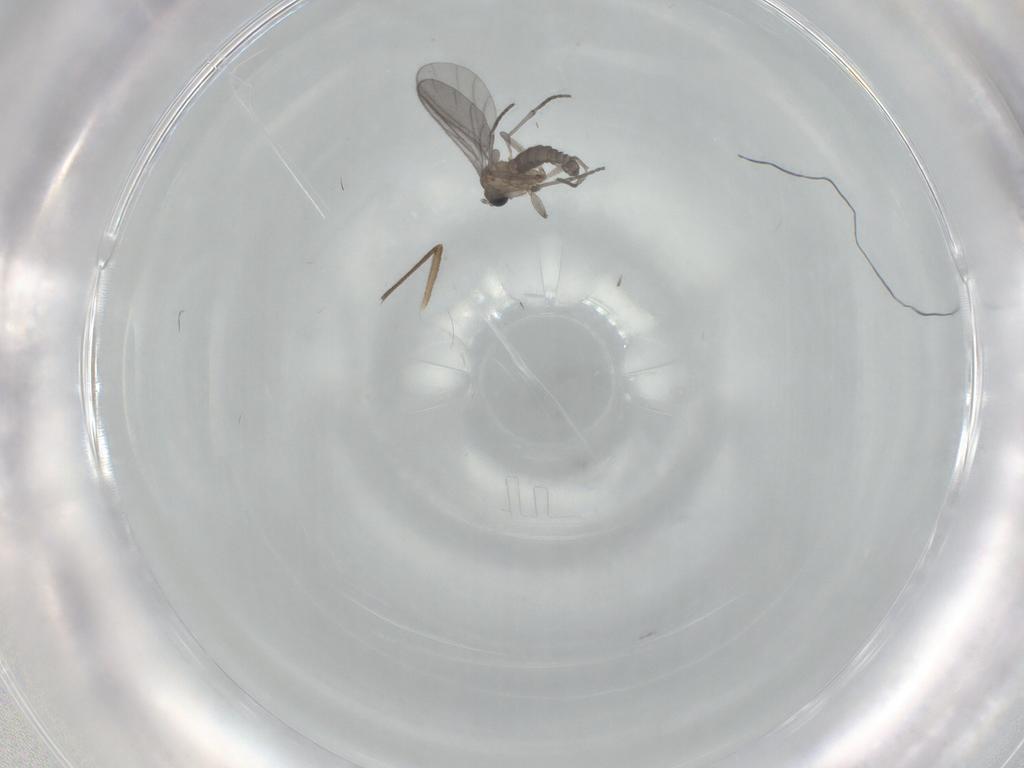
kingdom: Animalia
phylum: Arthropoda
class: Insecta
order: Diptera
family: Sciaridae
